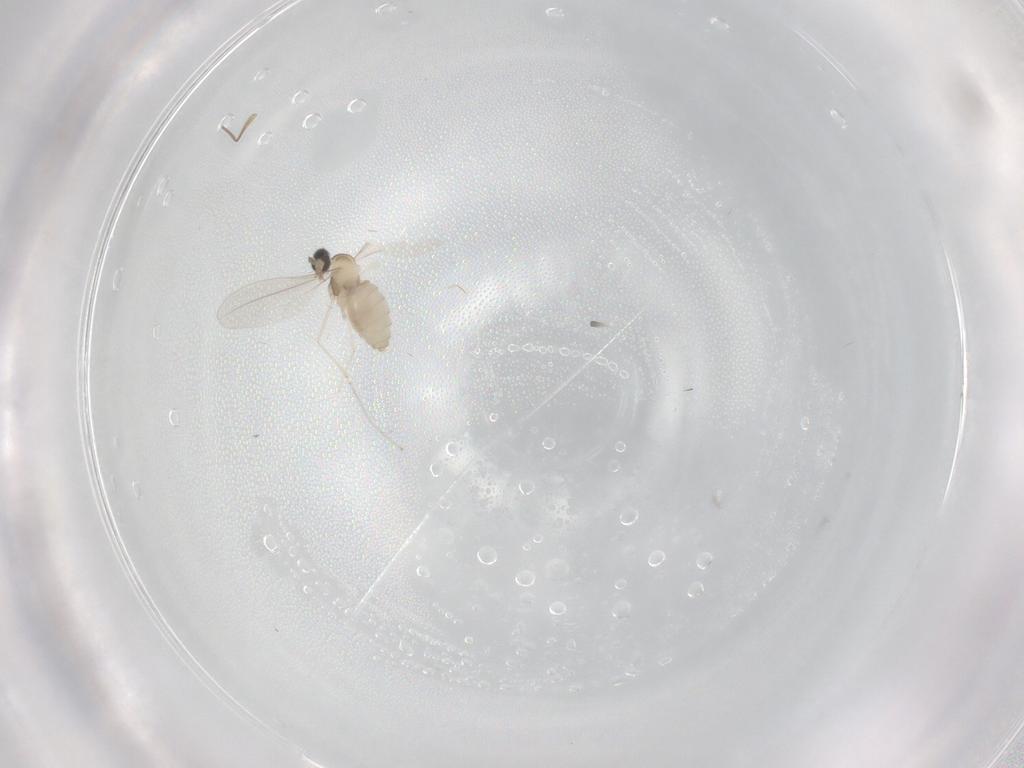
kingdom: Animalia
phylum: Arthropoda
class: Insecta
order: Diptera
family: Cecidomyiidae
